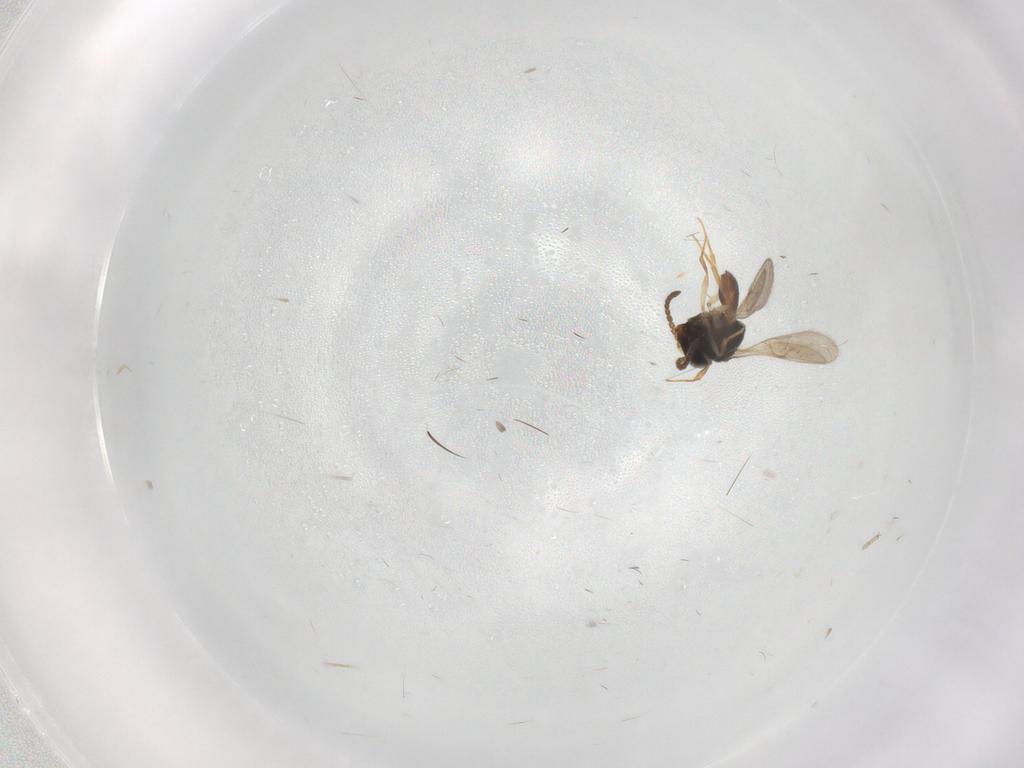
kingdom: Animalia
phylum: Arthropoda
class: Insecta
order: Hymenoptera
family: Scelionidae
